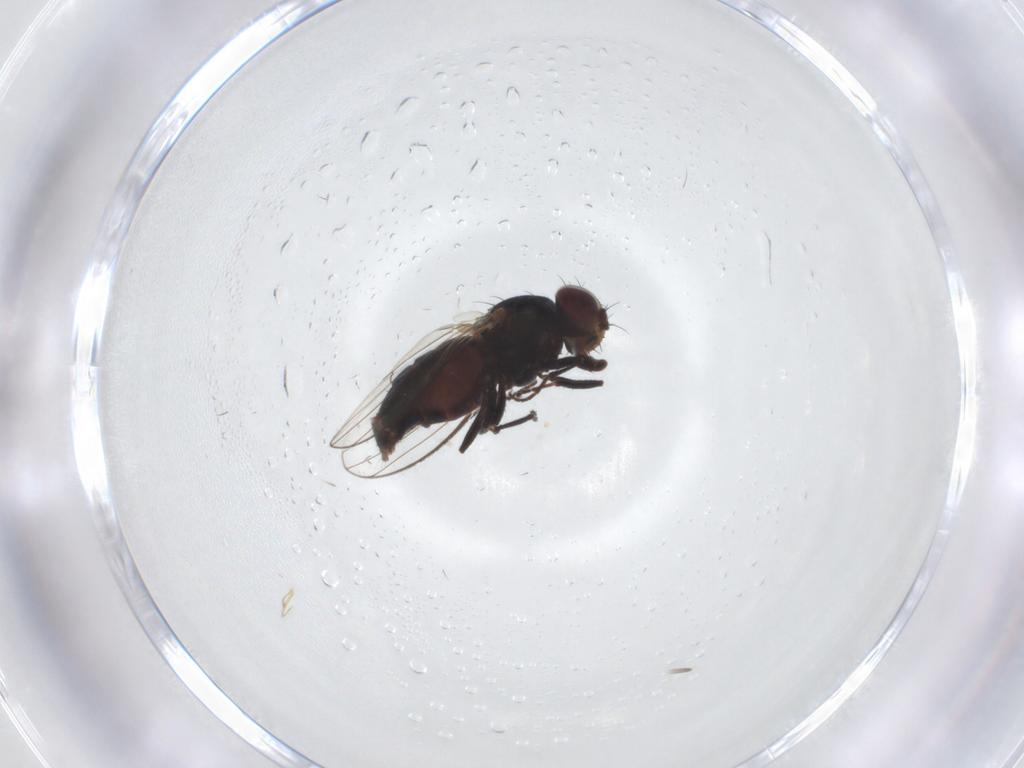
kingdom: Animalia
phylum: Arthropoda
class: Insecta
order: Diptera
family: Carnidae
